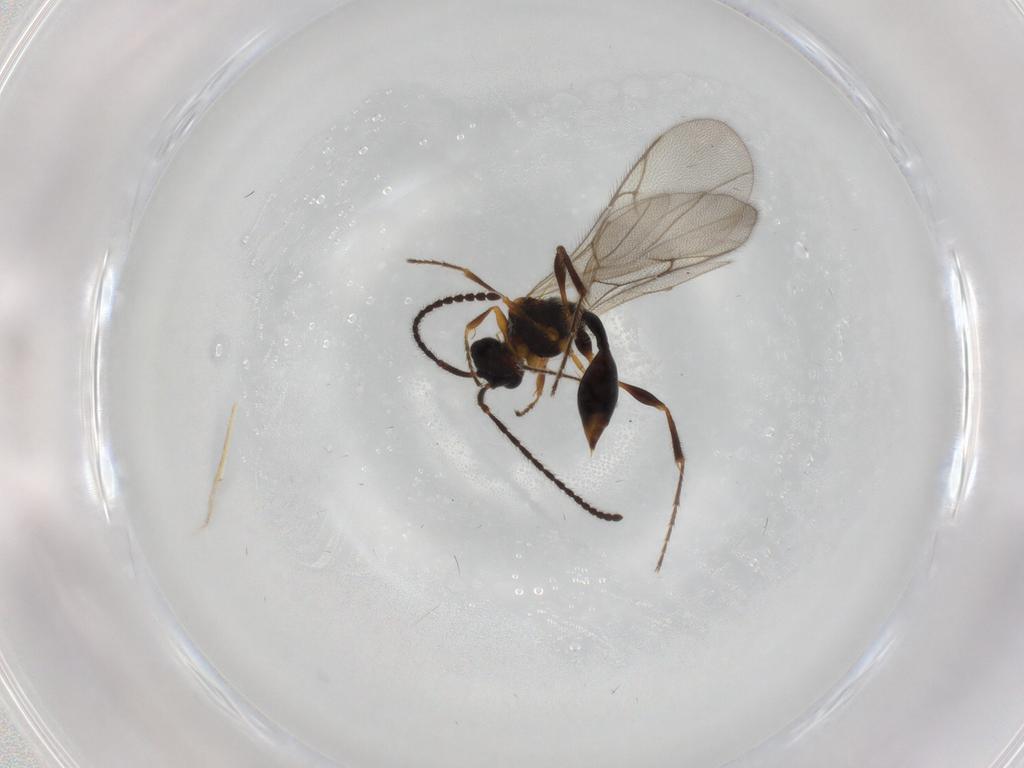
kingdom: Animalia
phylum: Arthropoda
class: Insecta
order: Hymenoptera
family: Diapriidae
